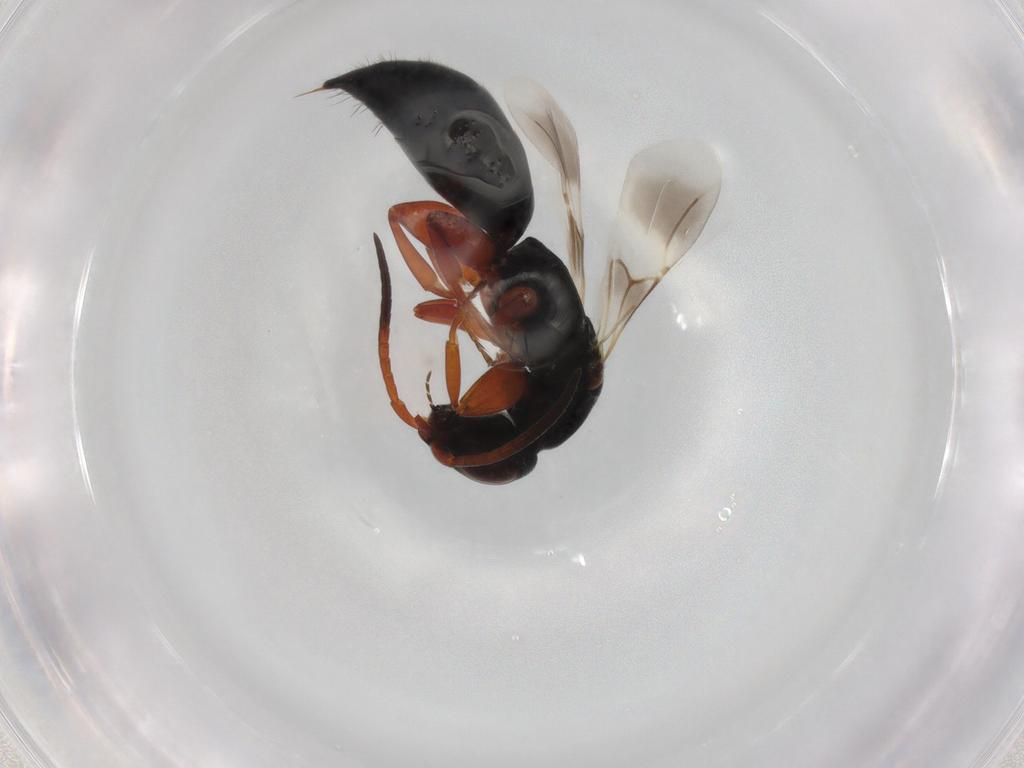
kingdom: Animalia
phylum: Arthropoda
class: Insecta
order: Hymenoptera
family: Bethylidae
